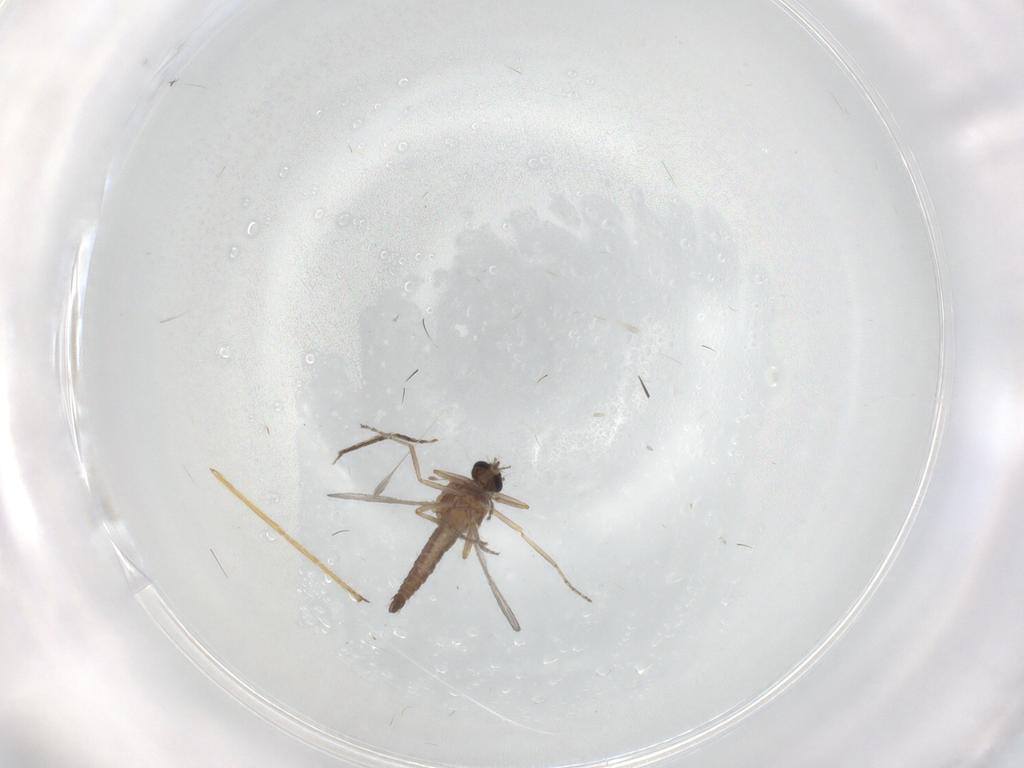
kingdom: Animalia
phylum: Arthropoda
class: Insecta
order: Diptera
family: Chironomidae
